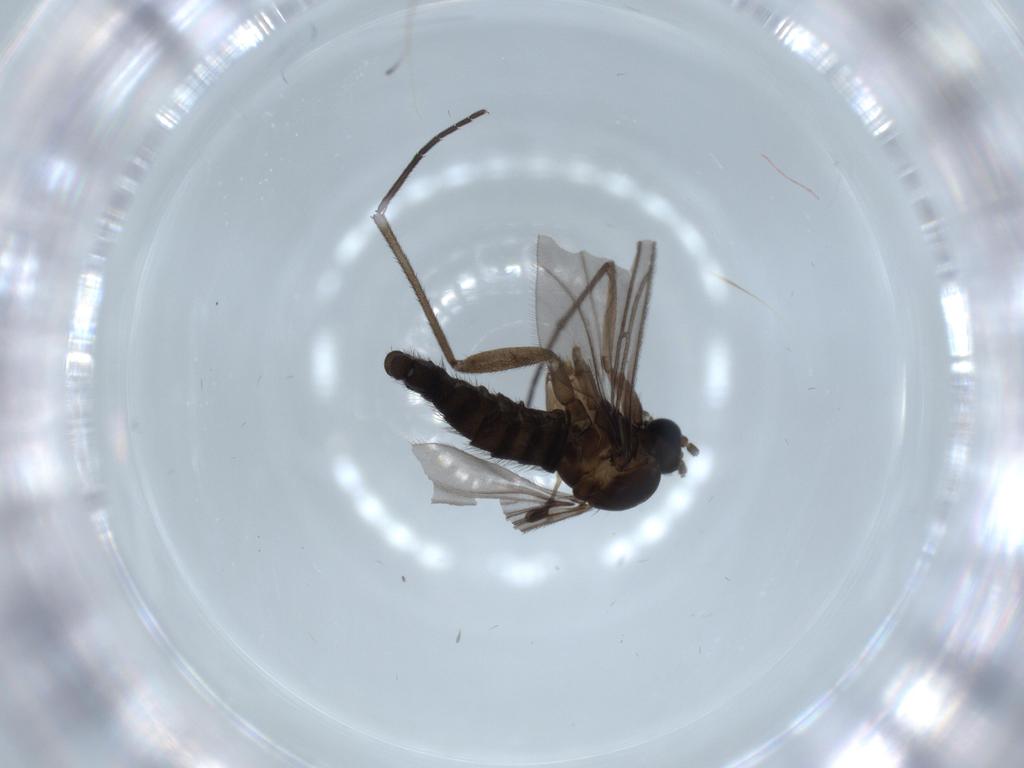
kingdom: Animalia
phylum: Arthropoda
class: Insecta
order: Diptera
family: Sciaridae
